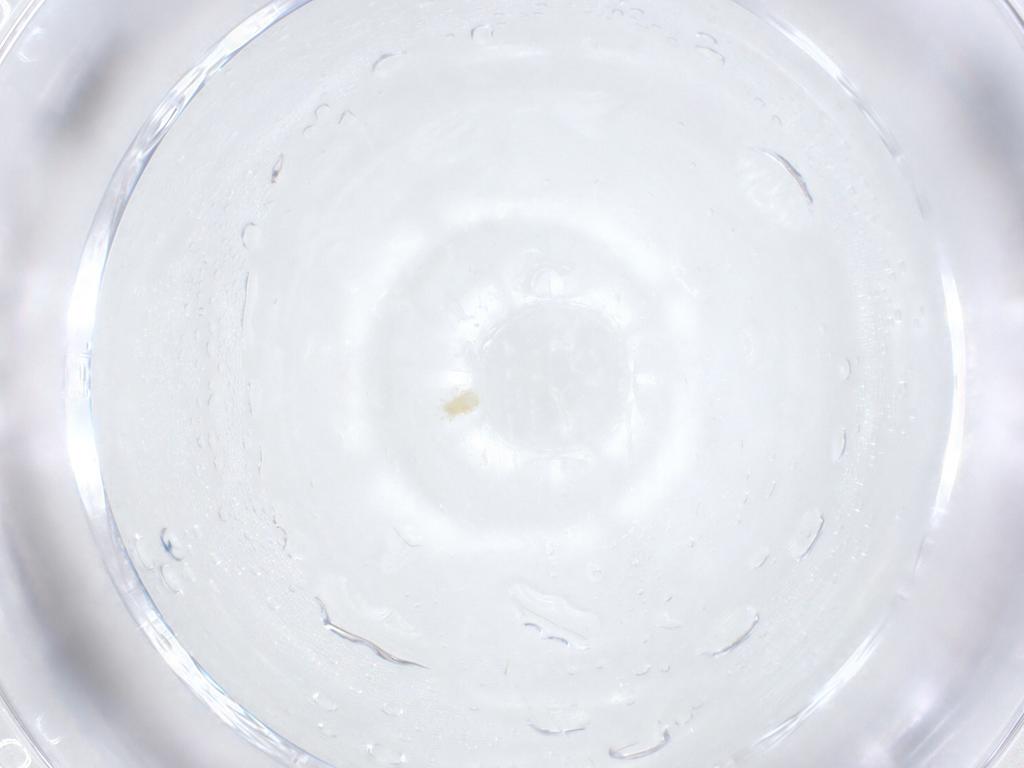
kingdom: Animalia
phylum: Arthropoda
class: Arachnida
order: Mesostigmata
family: Phytoseiidae
